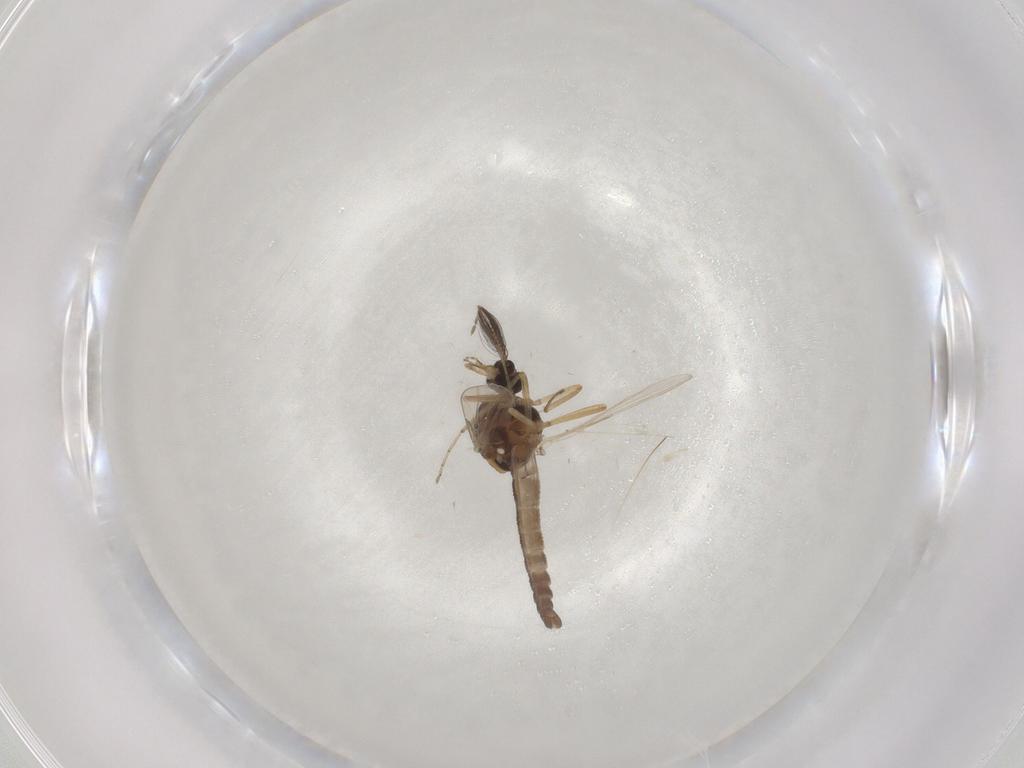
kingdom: Animalia
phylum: Arthropoda
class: Insecta
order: Diptera
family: Ceratopogonidae
